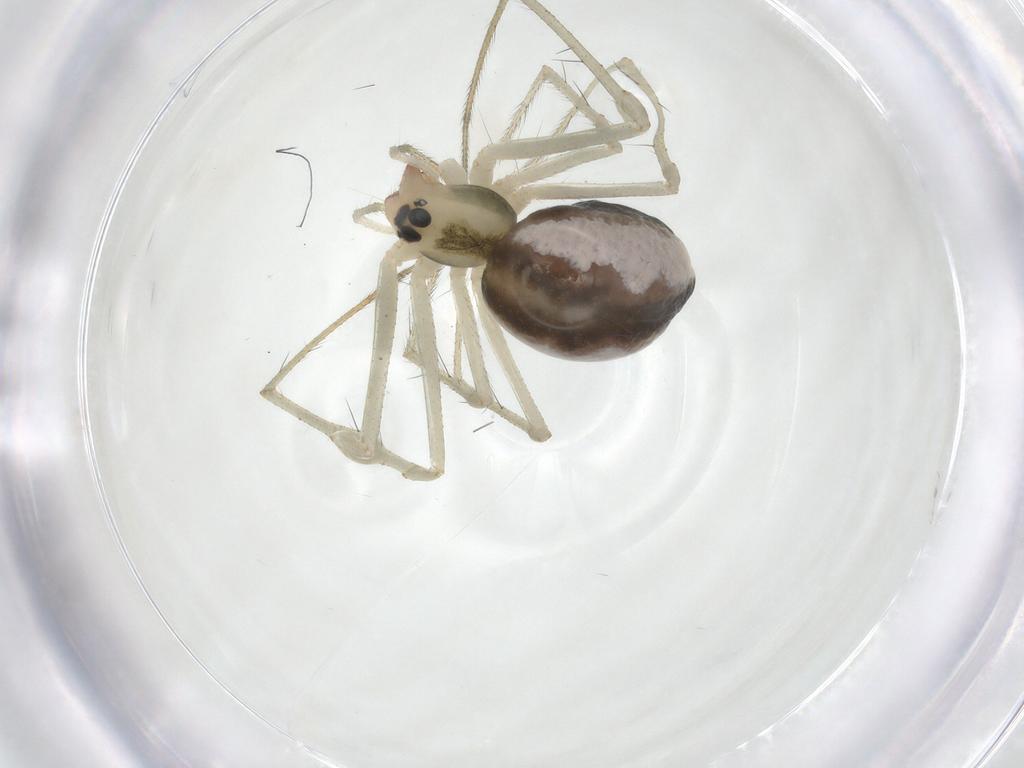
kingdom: Animalia
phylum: Arthropoda
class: Arachnida
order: Araneae
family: Linyphiidae
